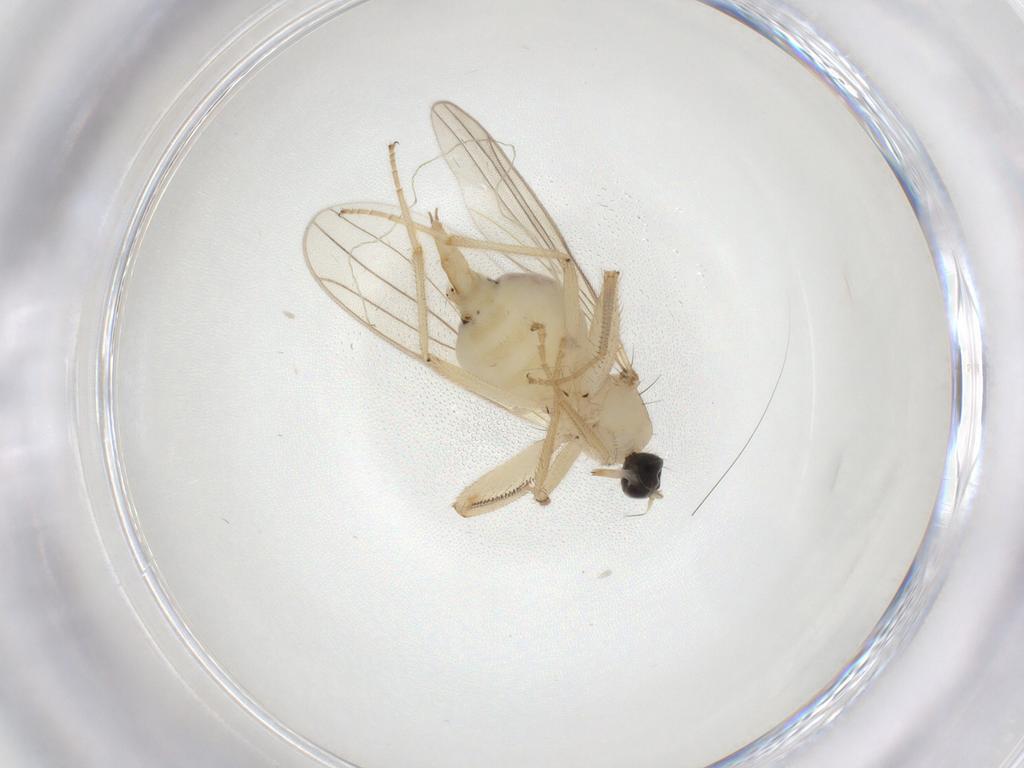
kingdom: Animalia
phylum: Arthropoda
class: Insecta
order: Diptera
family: Hybotidae
